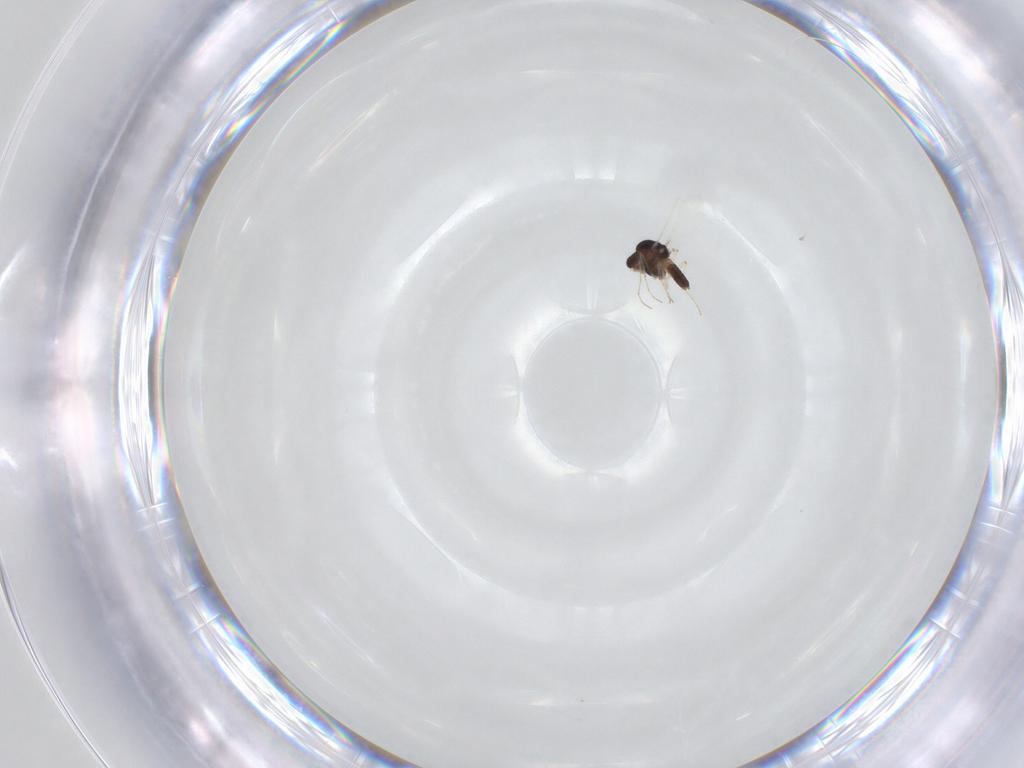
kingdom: Animalia
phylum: Arthropoda
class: Insecta
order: Diptera
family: Chironomidae
